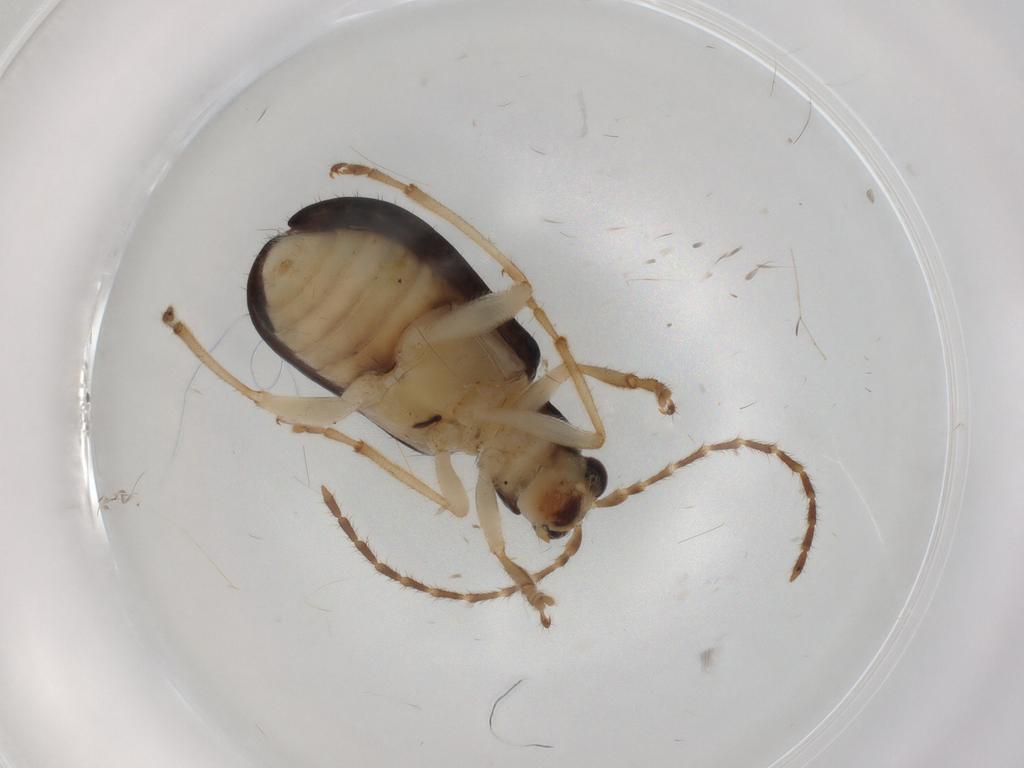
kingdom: Animalia
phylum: Arthropoda
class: Insecta
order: Coleoptera
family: Chrysomelidae
